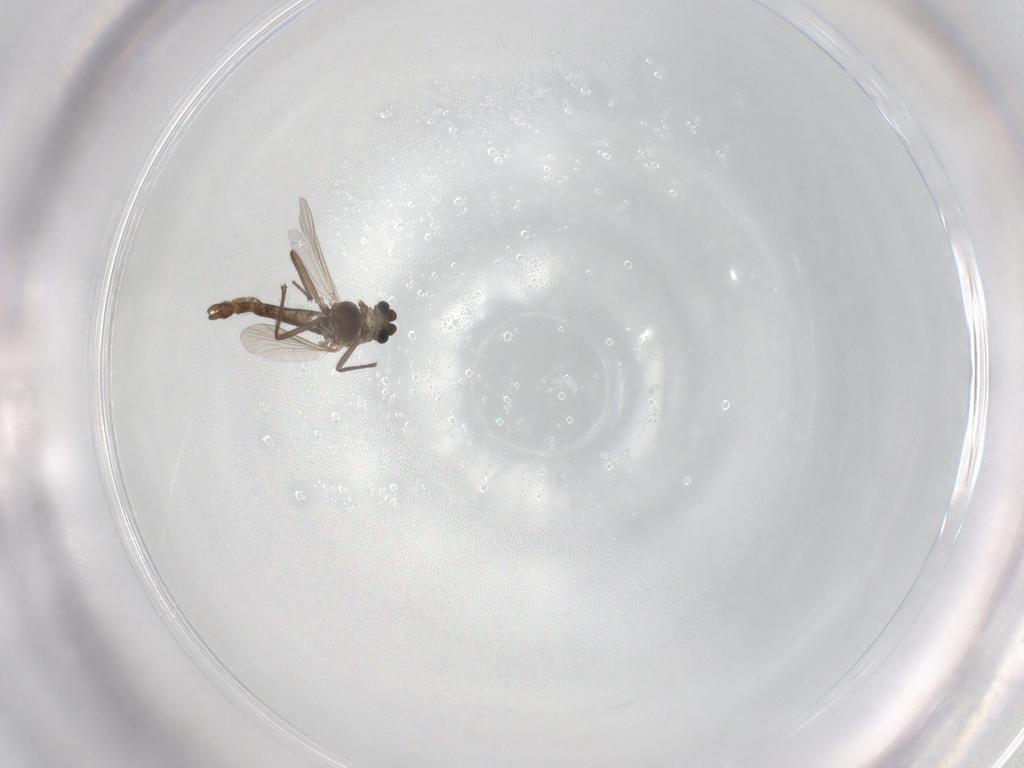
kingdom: Animalia
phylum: Arthropoda
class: Insecta
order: Diptera
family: Chironomidae
